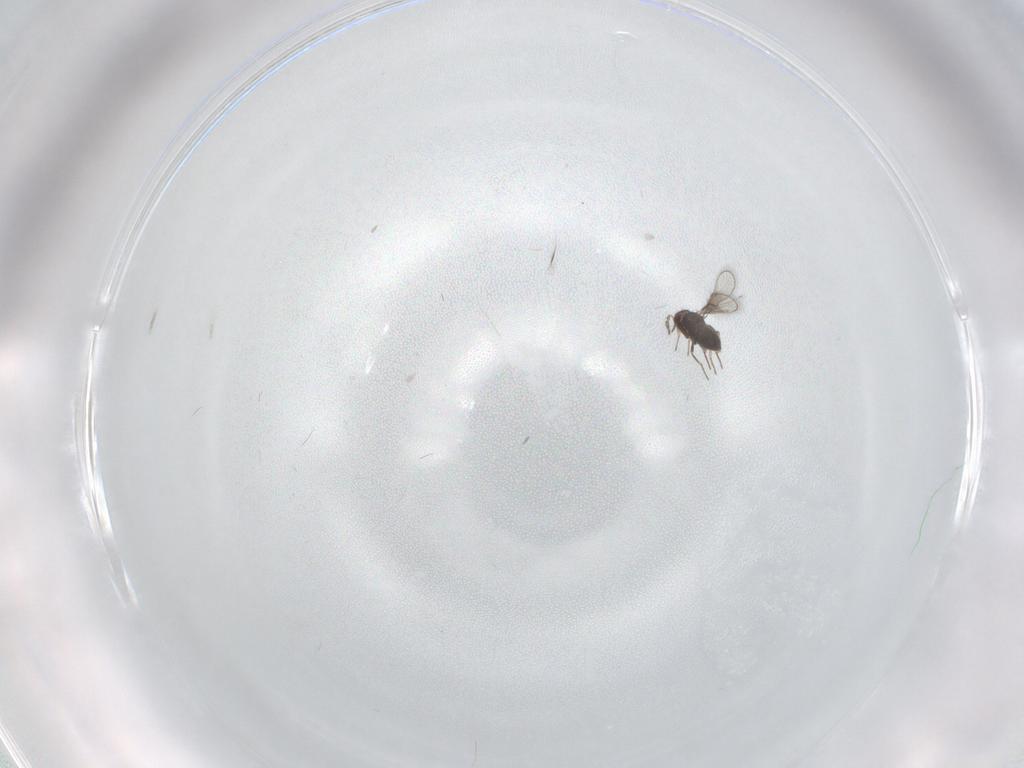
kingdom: Animalia
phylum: Arthropoda
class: Insecta
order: Hymenoptera
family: Trichogrammatidae
